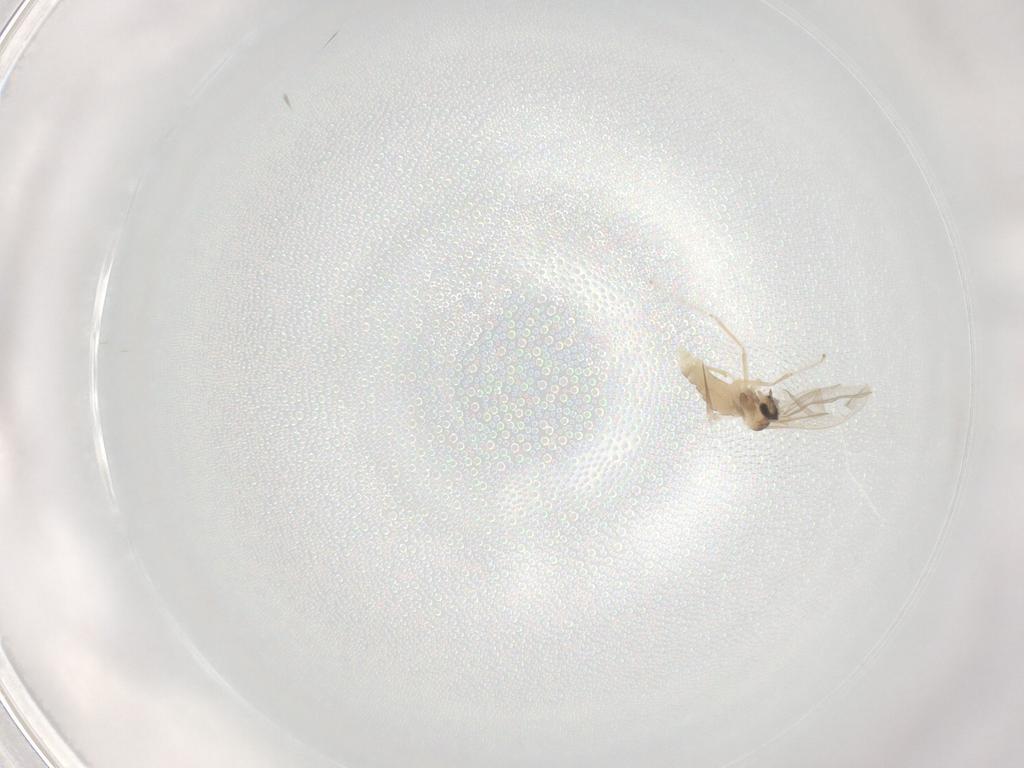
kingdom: Animalia
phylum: Arthropoda
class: Insecta
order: Diptera
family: Cecidomyiidae
